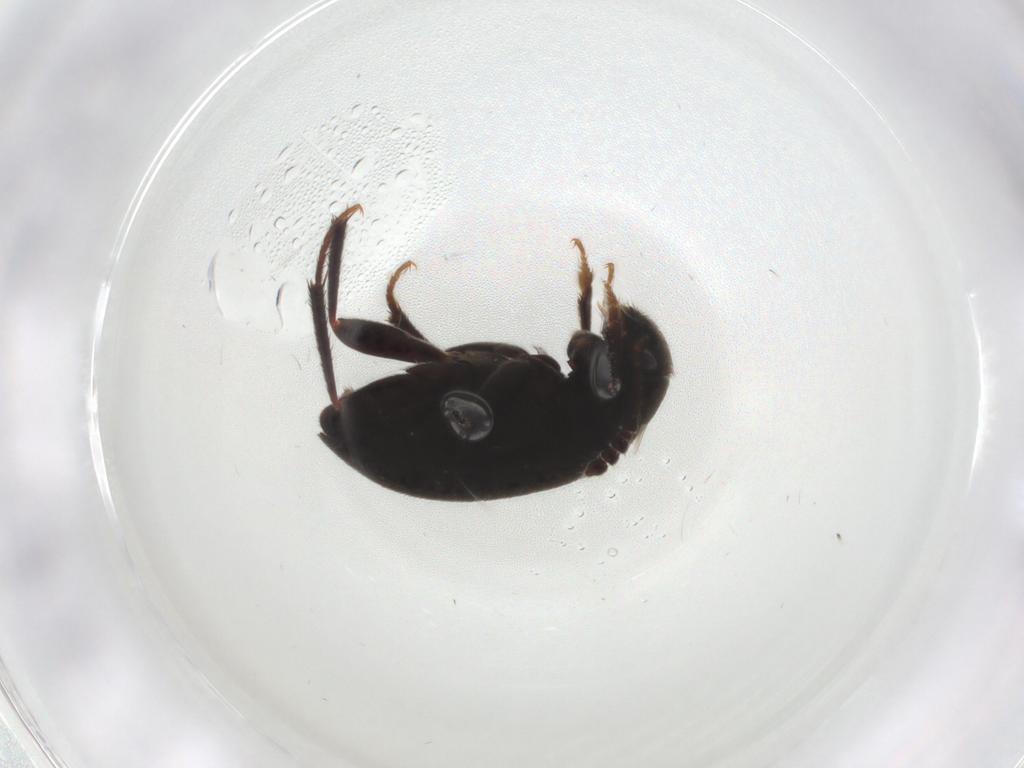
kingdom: Animalia
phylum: Arthropoda
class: Insecta
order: Coleoptera
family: Leiodidae
